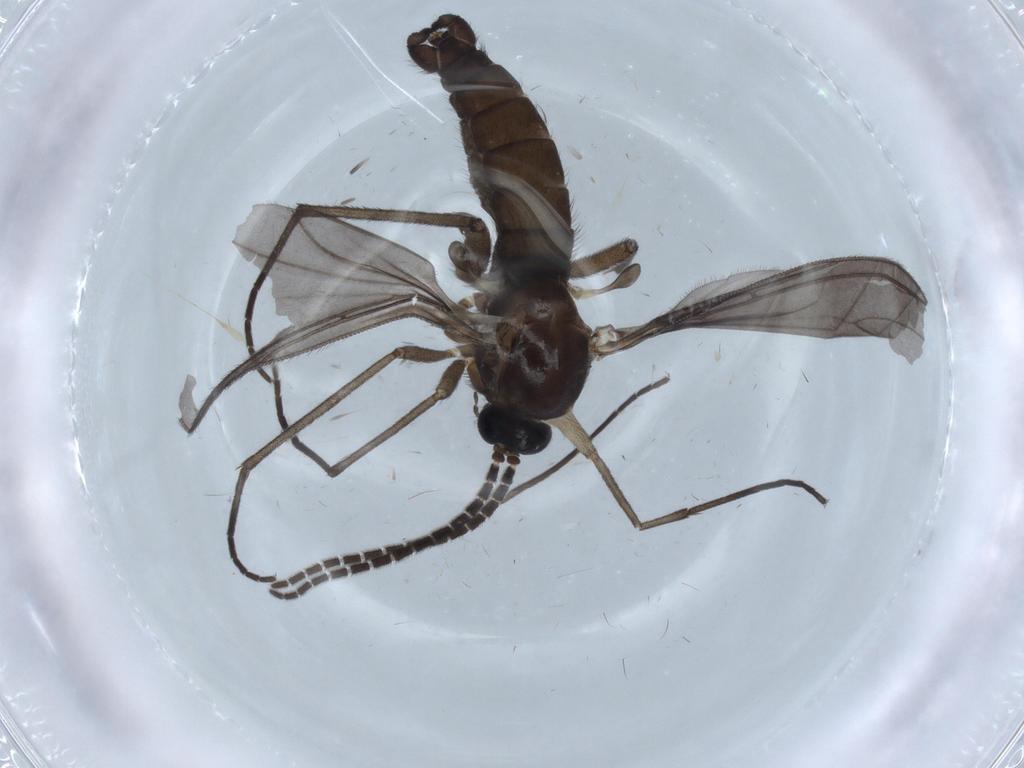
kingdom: Animalia
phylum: Arthropoda
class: Insecta
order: Diptera
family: Sciaridae
